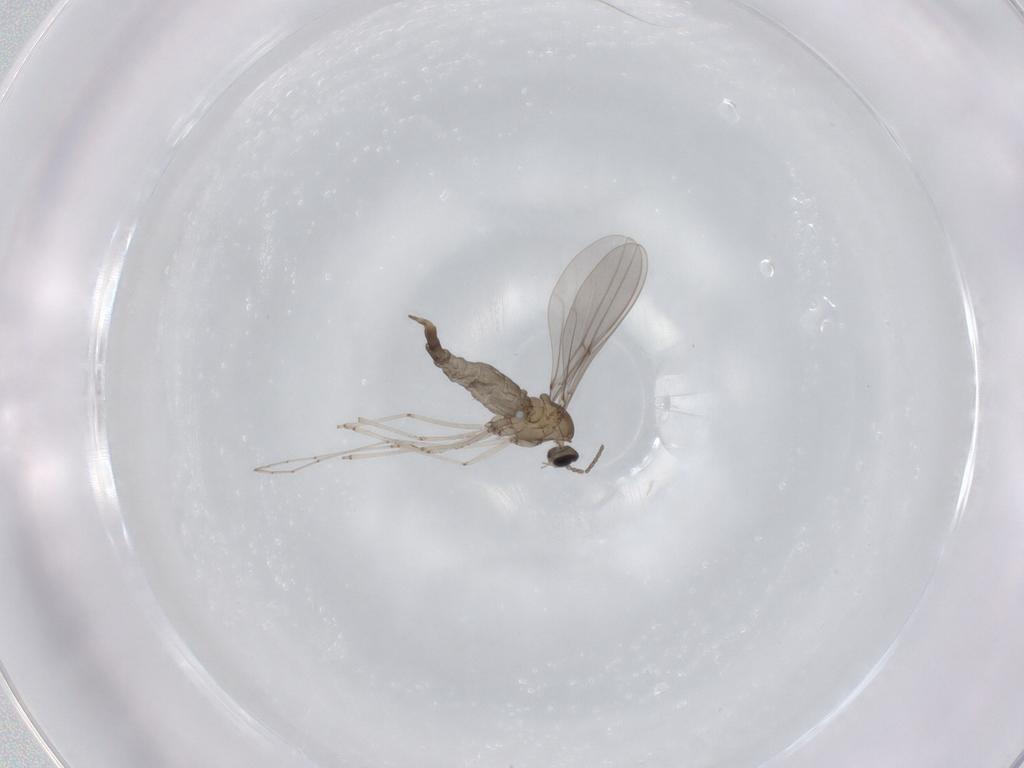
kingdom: Animalia
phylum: Arthropoda
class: Insecta
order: Diptera
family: Cecidomyiidae
